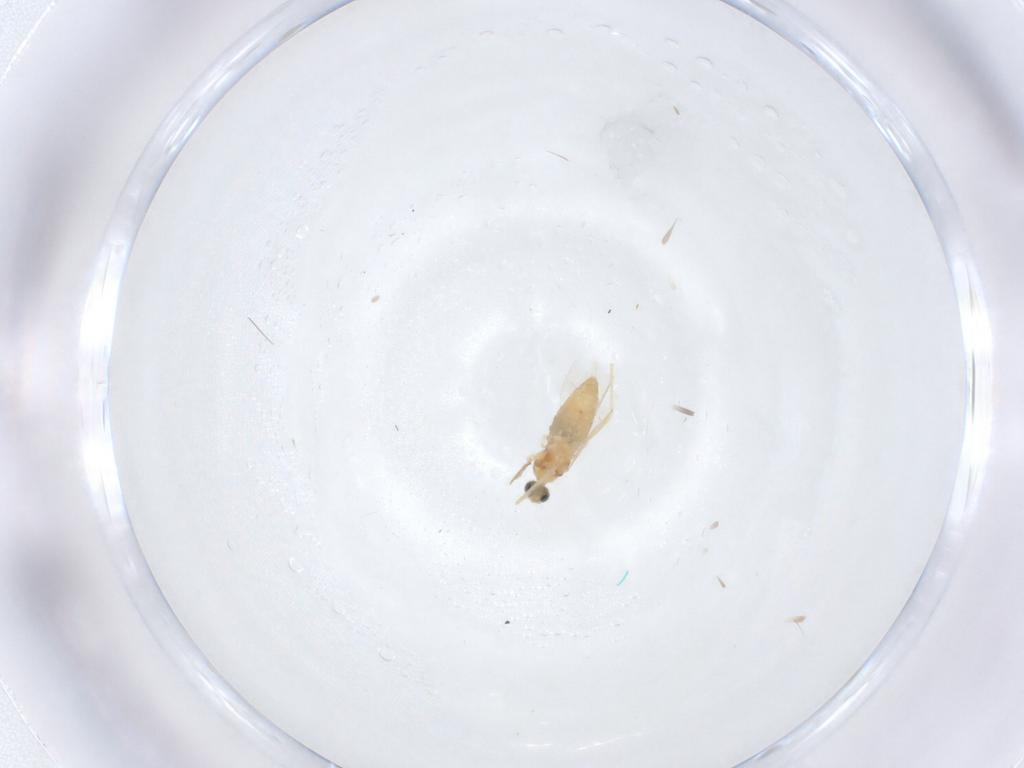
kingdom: Animalia
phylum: Arthropoda
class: Insecta
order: Diptera
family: Cecidomyiidae
